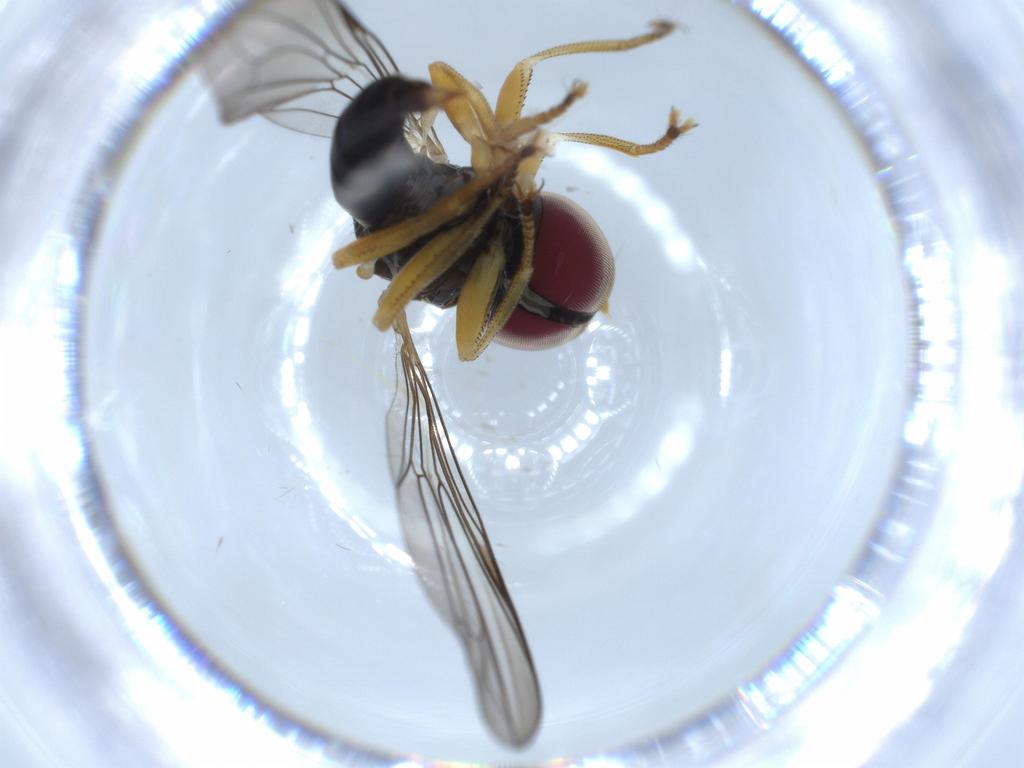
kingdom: Animalia
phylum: Arthropoda
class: Insecta
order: Diptera
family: Pipunculidae
